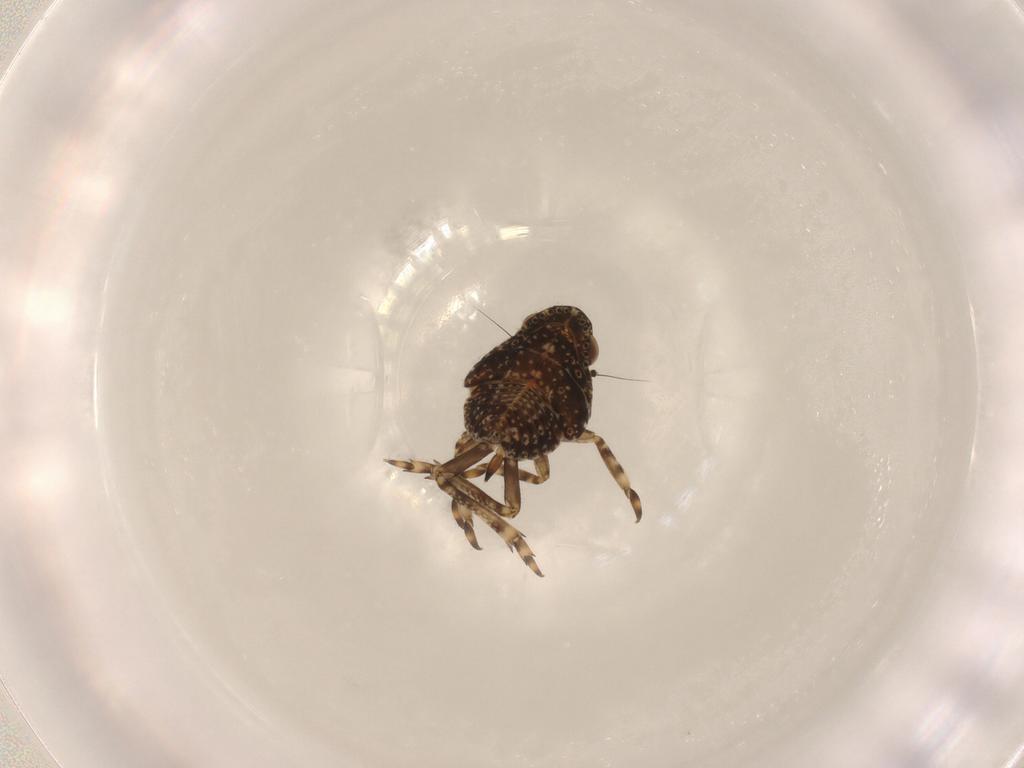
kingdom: Animalia
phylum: Arthropoda
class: Insecta
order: Hemiptera
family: Nogodinidae
